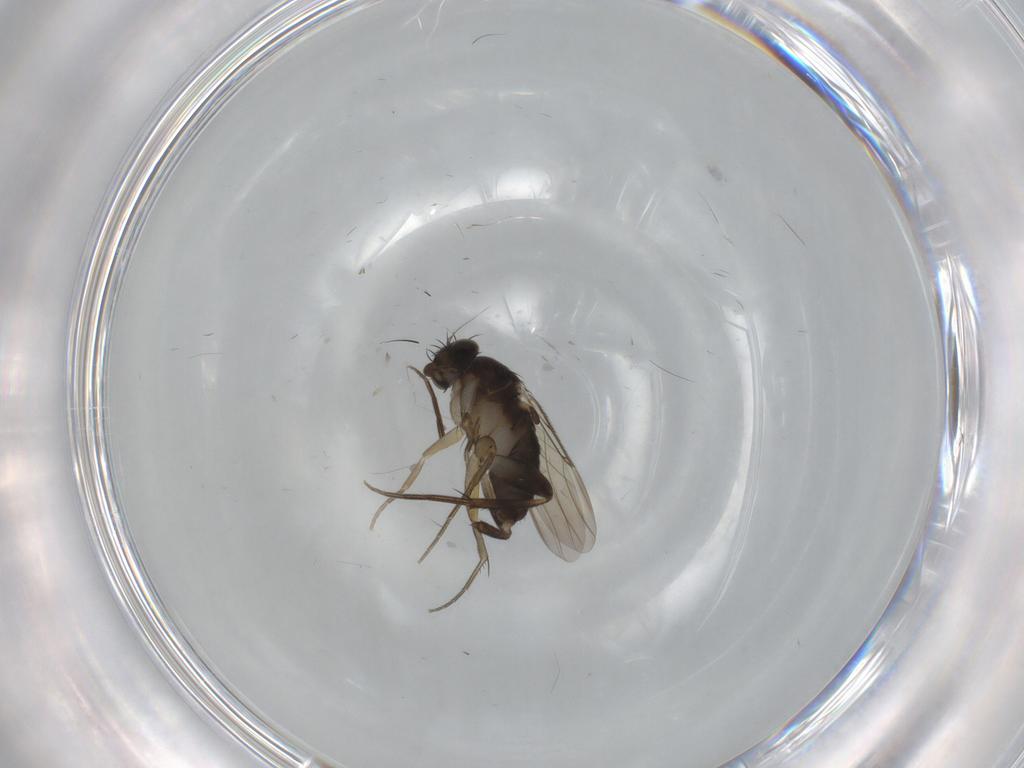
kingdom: Animalia
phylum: Arthropoda
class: Insecta
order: Diptera
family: Phoridae
